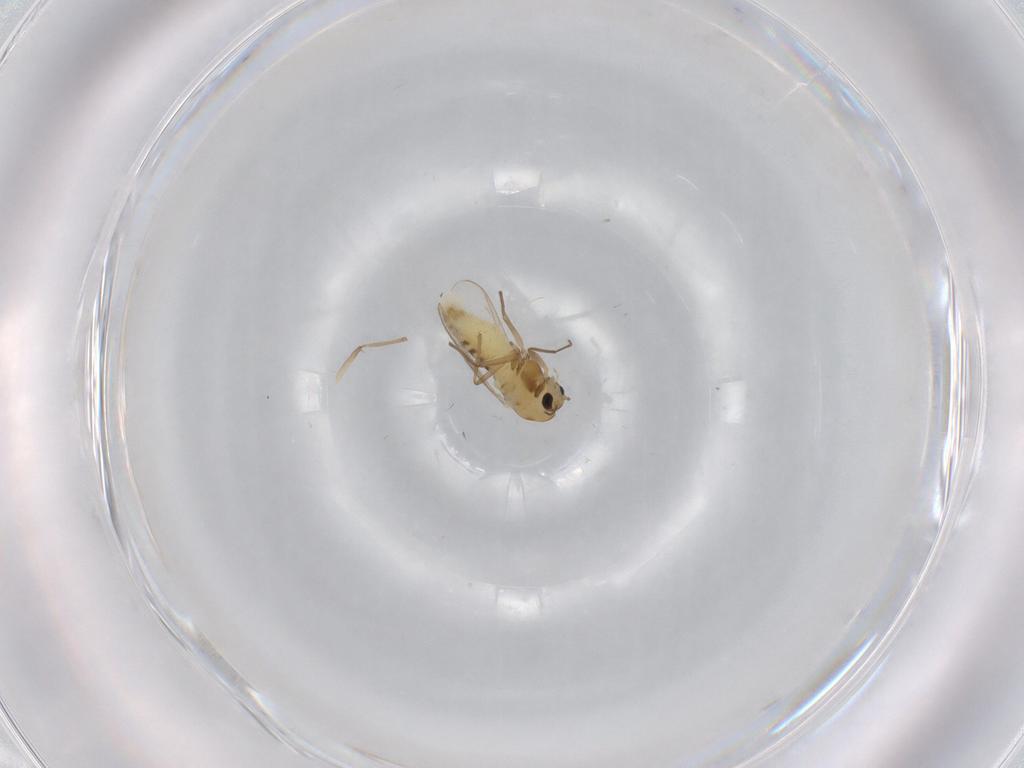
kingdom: Animalia
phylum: Arthropoda
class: Insecta
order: Diptera
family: Chironomidae
